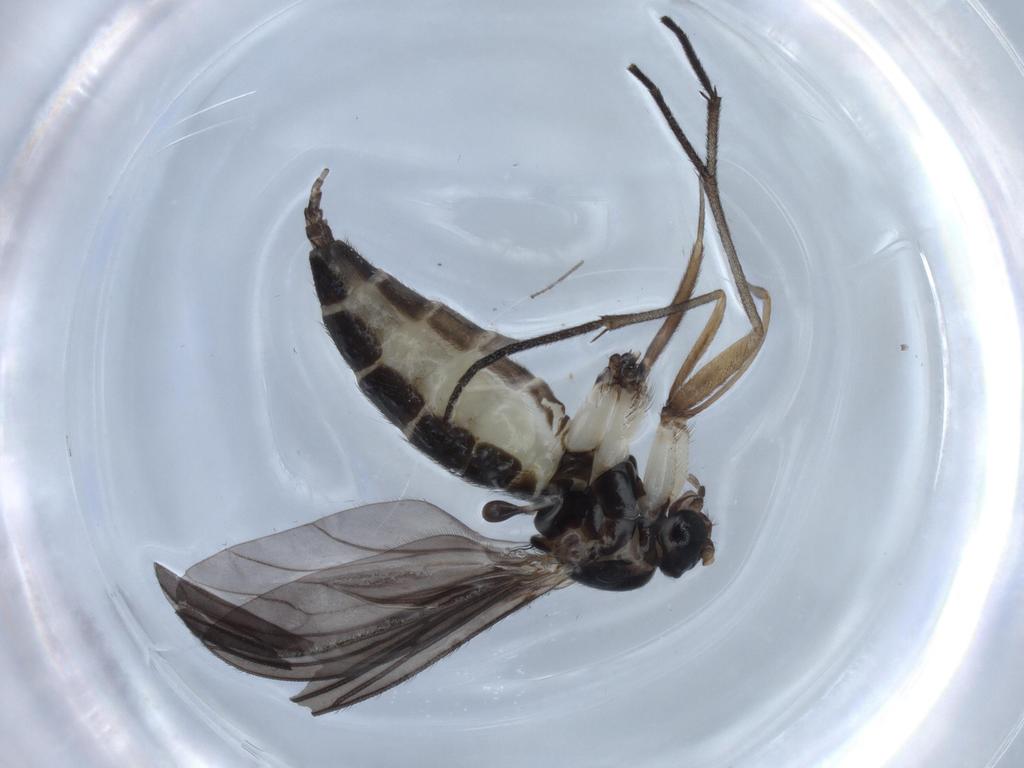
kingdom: Animalia
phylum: Arthropoda
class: Insecta
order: Diptera
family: Sciaridae
